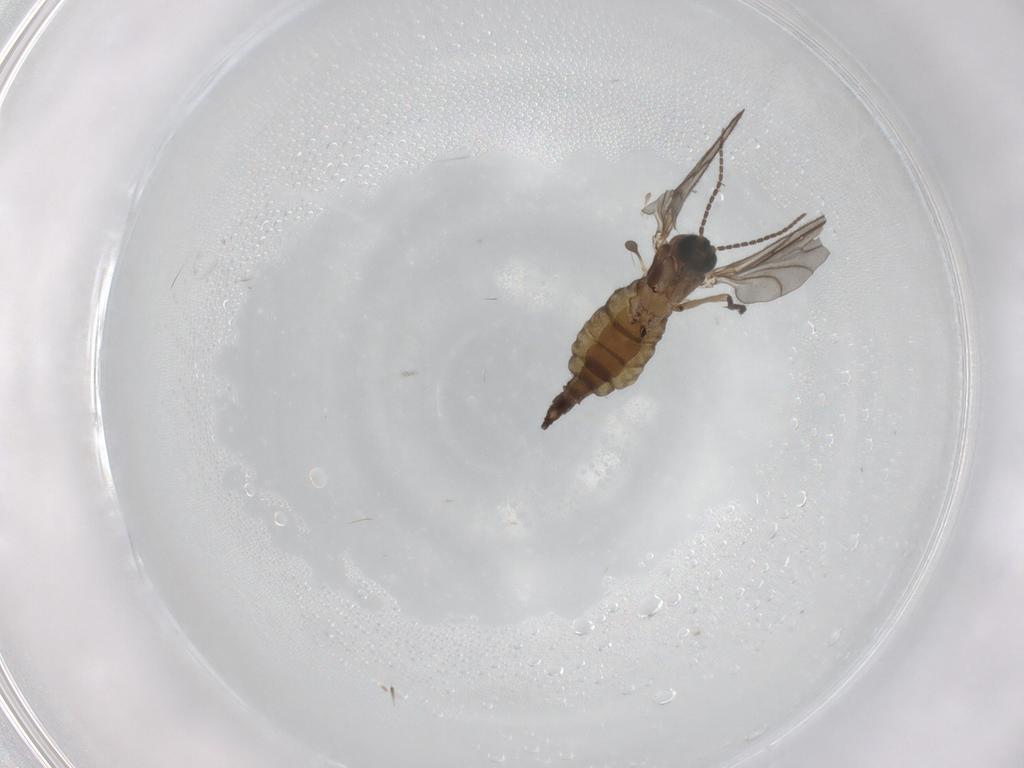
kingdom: Animalia
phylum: Arthropoda
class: Insecta
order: Diptera
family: Sciaridae
